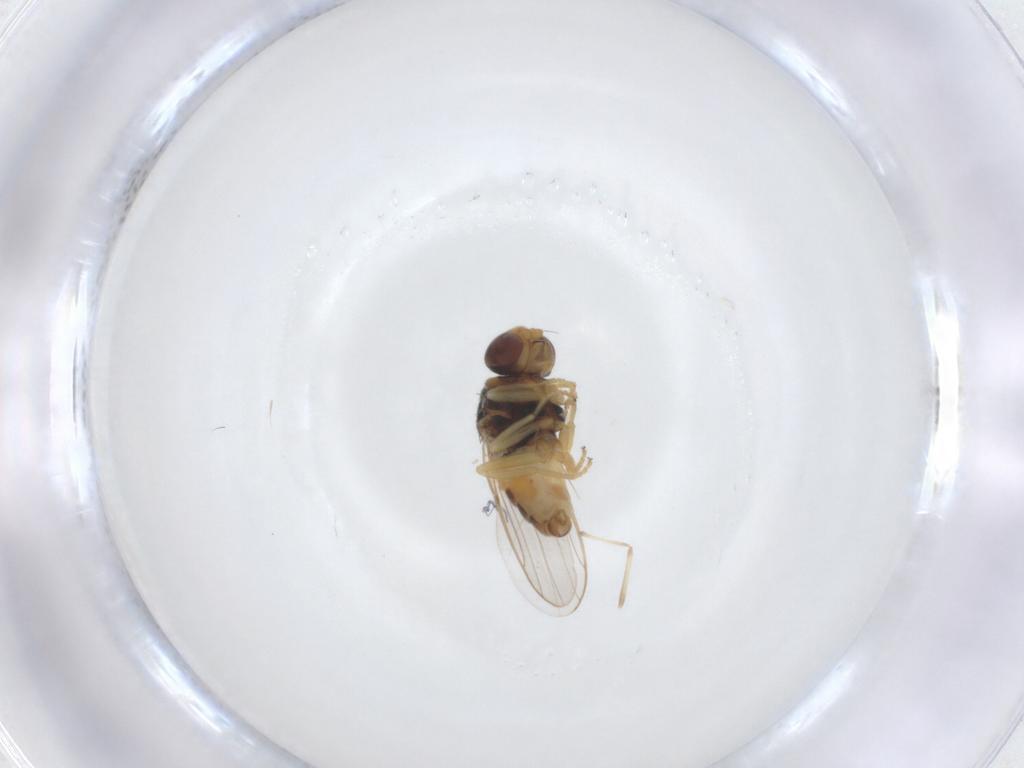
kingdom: Animalia
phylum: Arthropoda
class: Insecta
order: Diptera
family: Chloropidae
